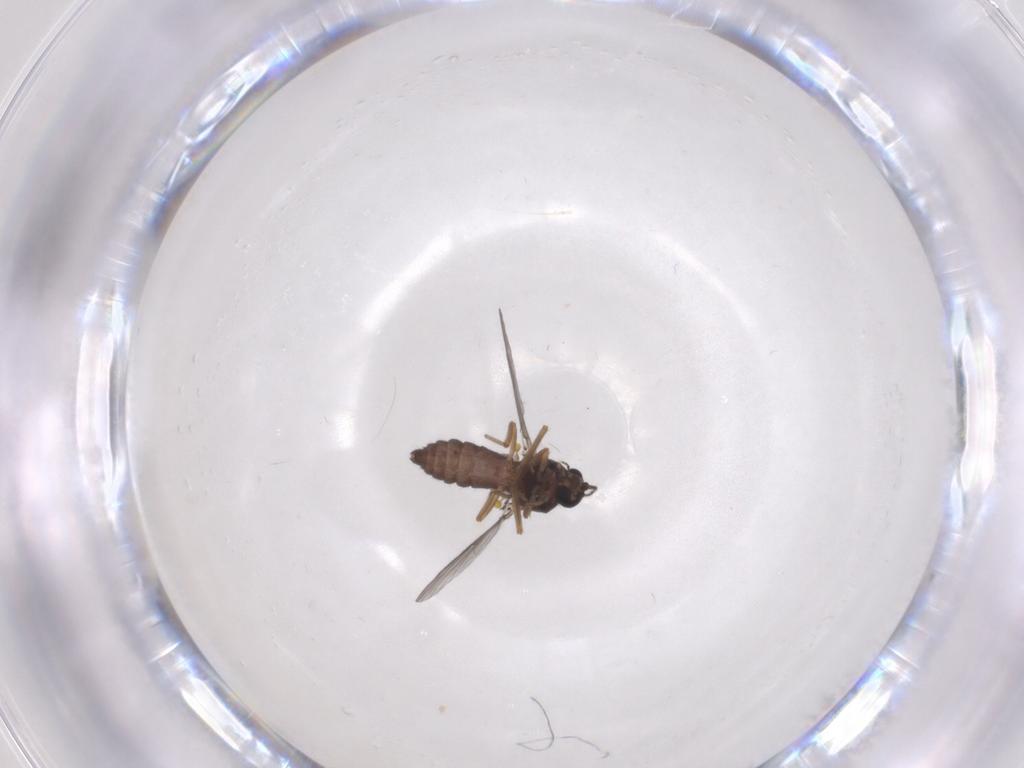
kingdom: Animalia
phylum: Arthropoda
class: Insecta
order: Diptera
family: Ceratopogonidae
